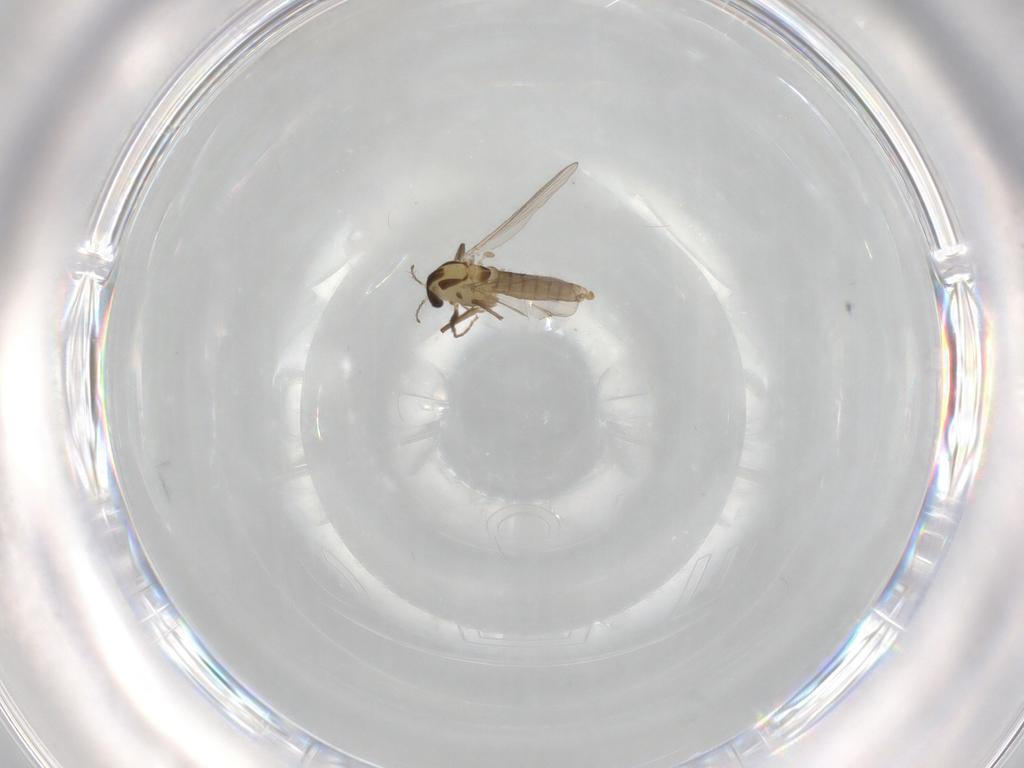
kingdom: Animalia
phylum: Arthropoda
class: Insecta
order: Diptera
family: Chironomidae
